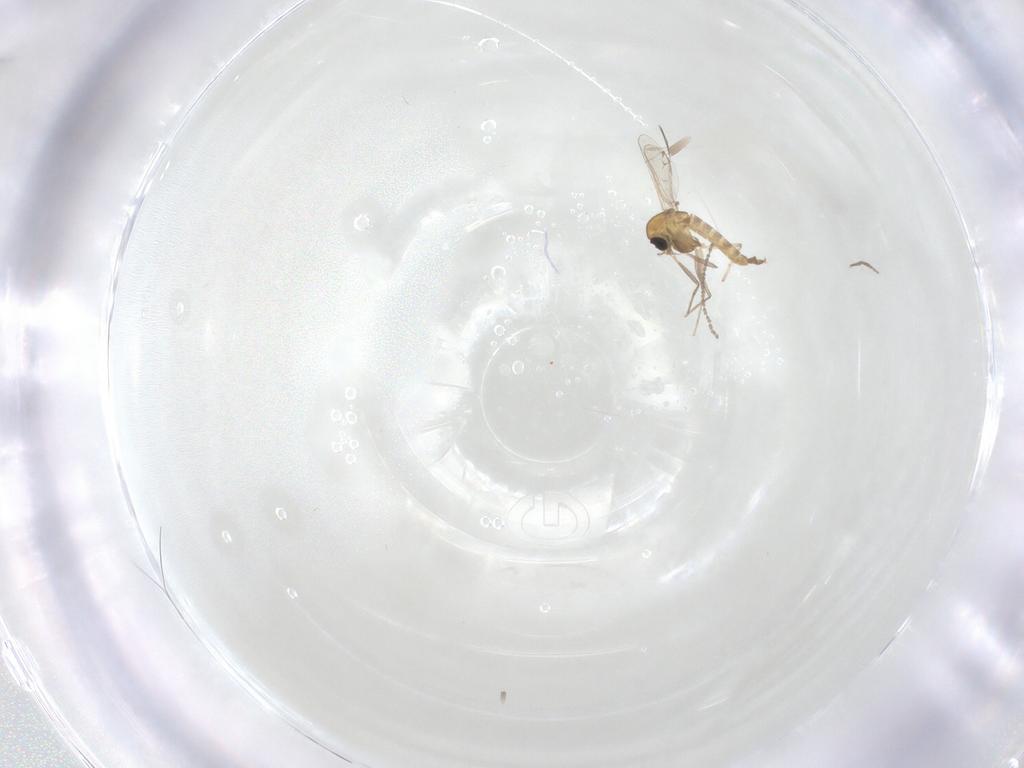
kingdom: Animalia
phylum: Arthropoda
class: Insecta
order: Diptera
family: Cecidomyiidae
